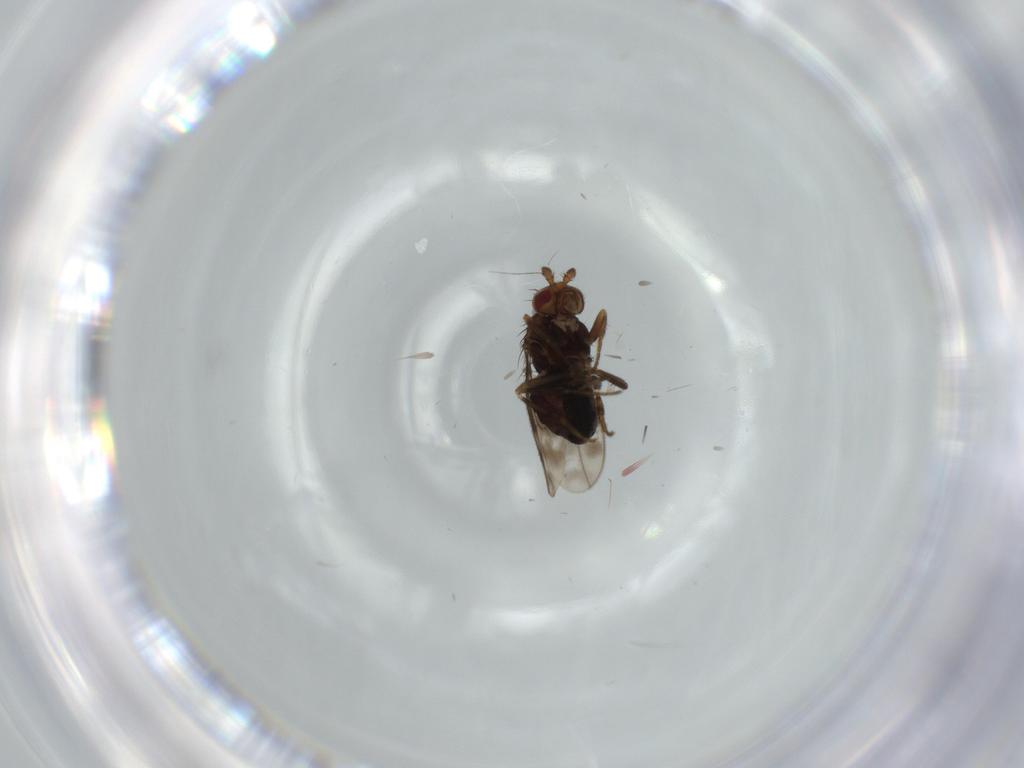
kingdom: Animalia
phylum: Arthropoda
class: Insecta
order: Diptera
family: Sphaeroceridae
